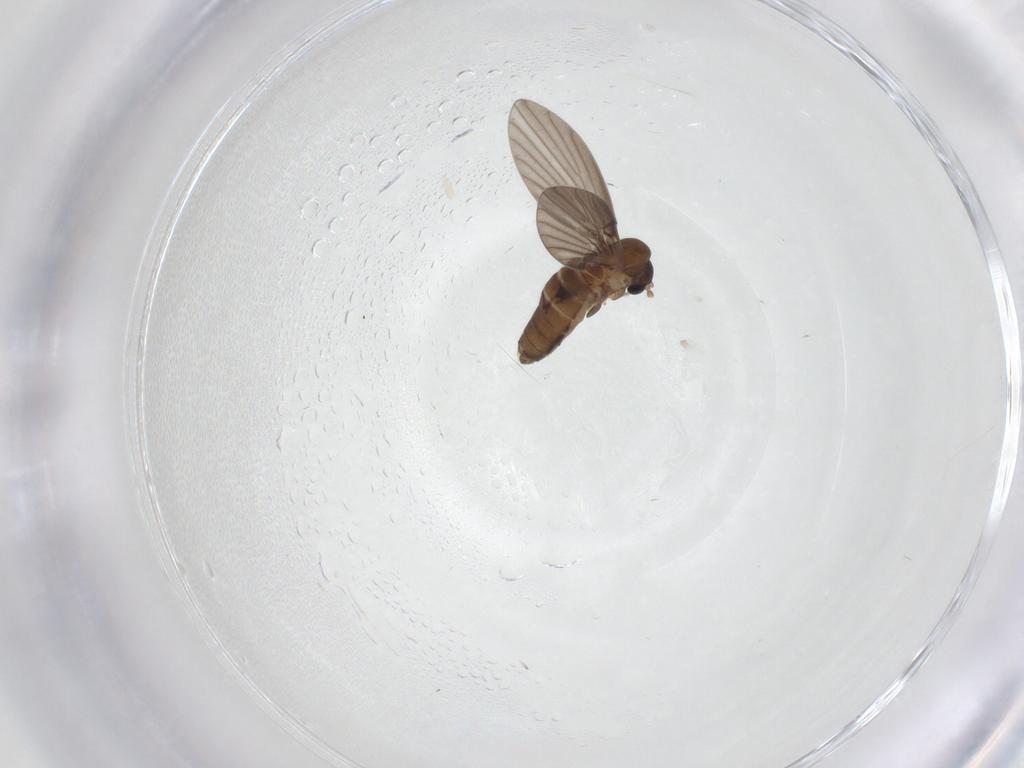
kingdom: Animalia
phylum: Arthropoda
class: Insecta
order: Diptera
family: Psychodidae
